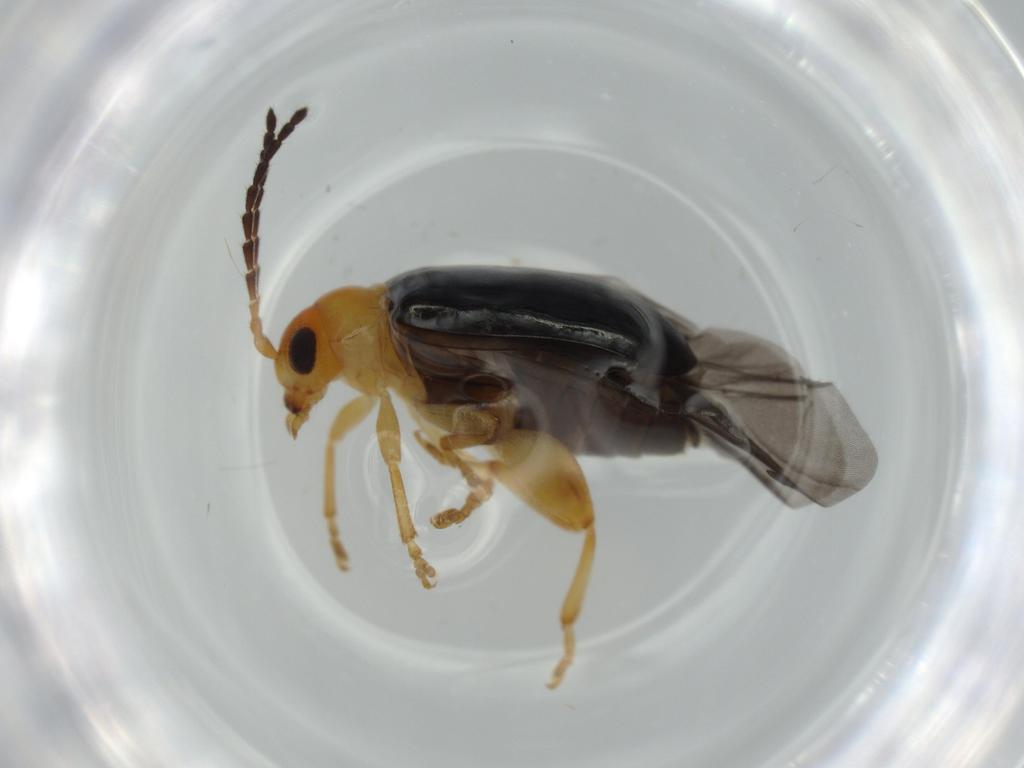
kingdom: Animalia
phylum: Arthropoda
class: Insecta
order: Coleoptera
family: Chrysomelidae
